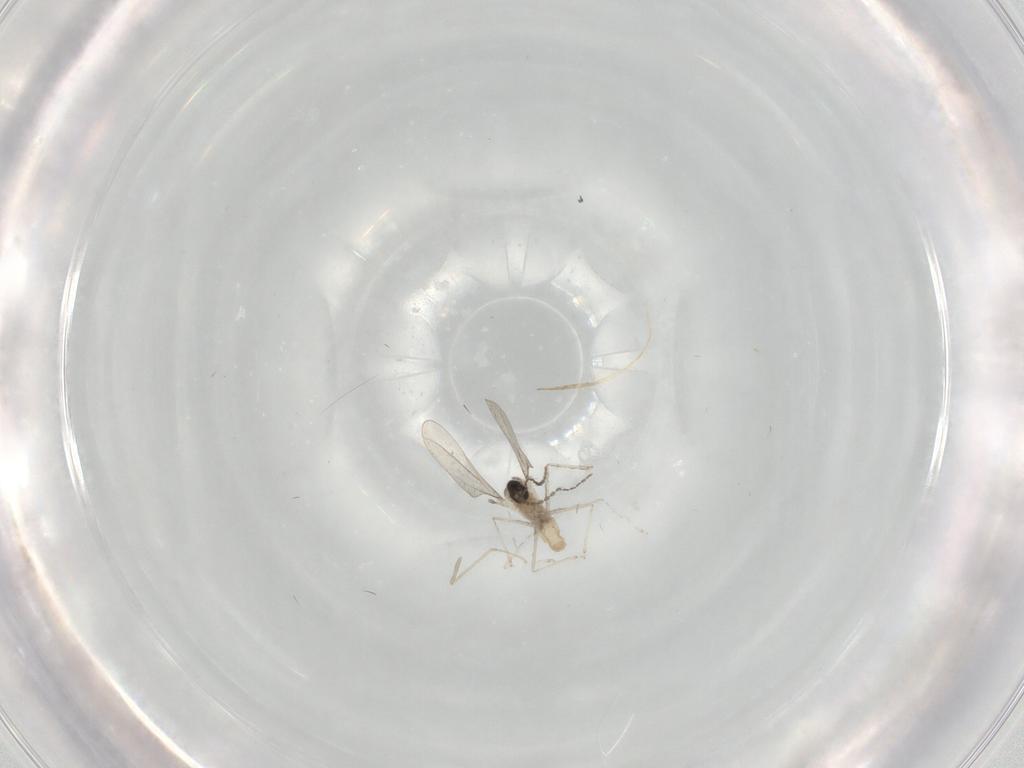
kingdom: Animalia
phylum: Arthropoda
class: Insecta
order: Diptera
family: Cecidomyiidae
